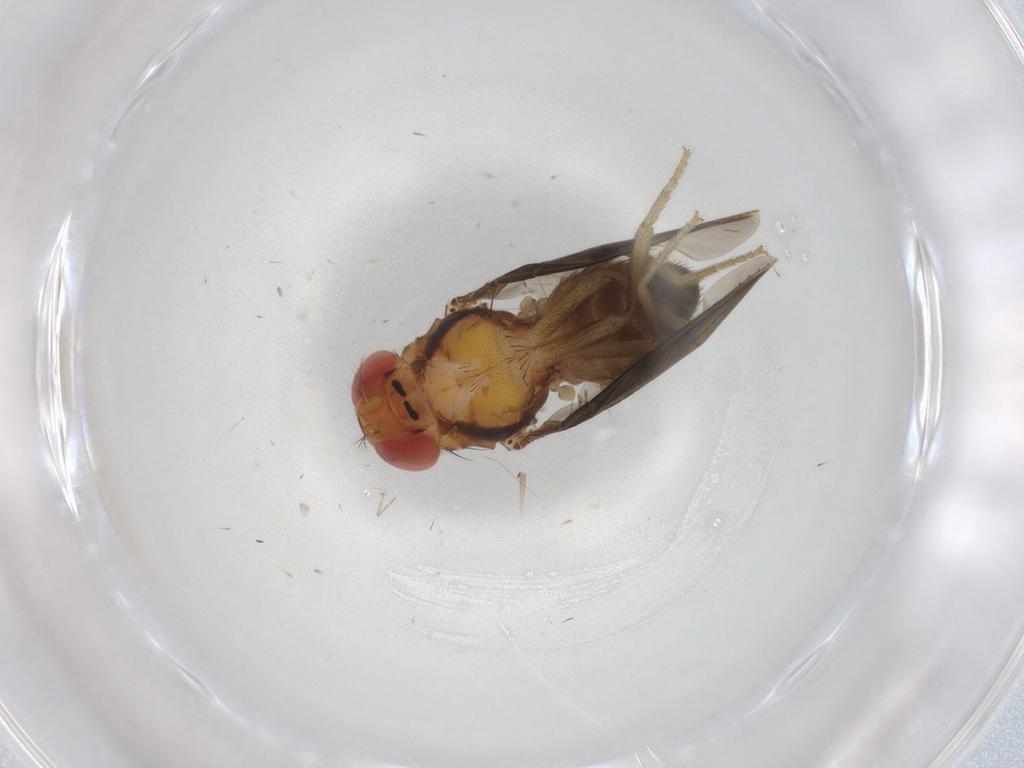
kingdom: Animalia
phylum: Arthropoda
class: Insecta
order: Diptera
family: Drosophilidae
